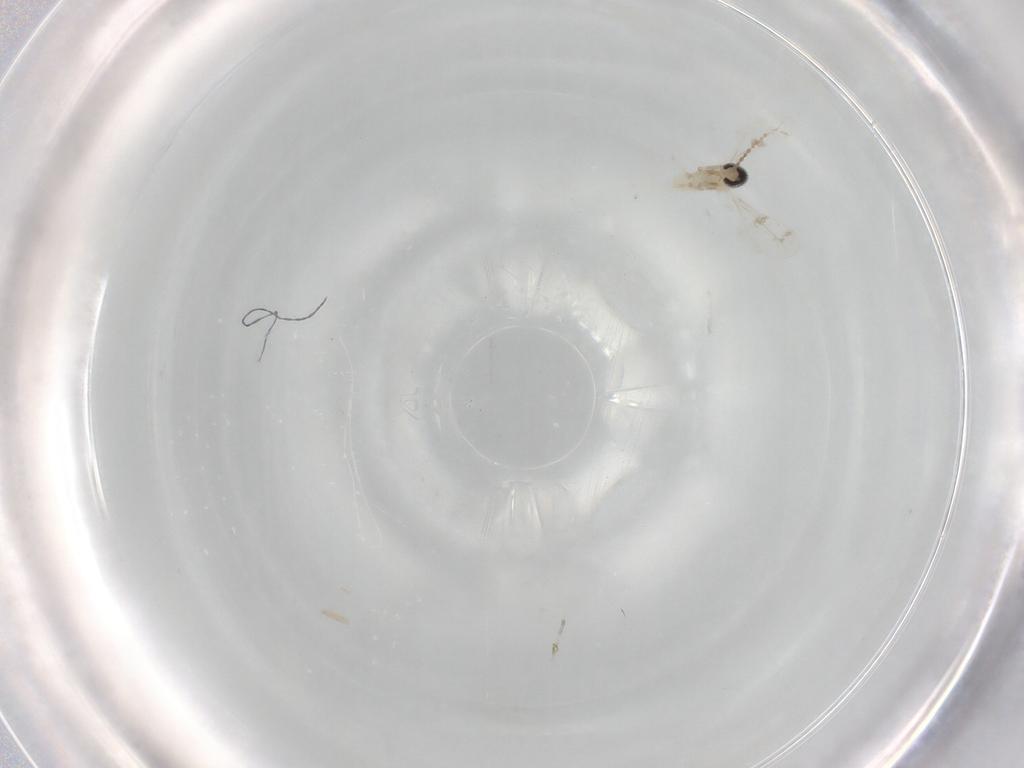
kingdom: Animalia
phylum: Arthropoda
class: Insecta
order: Diptera
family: Cecidomyiidae
